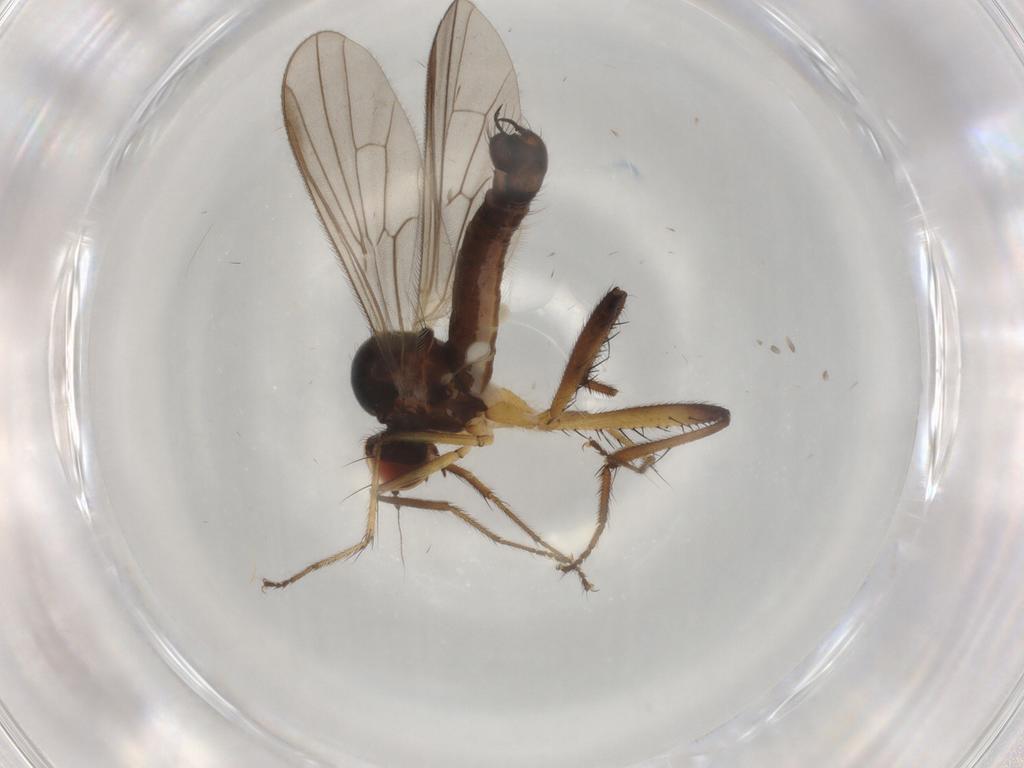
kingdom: Animalia
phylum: Arthropoda
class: Insecta
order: Diptera
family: Hybotidae
